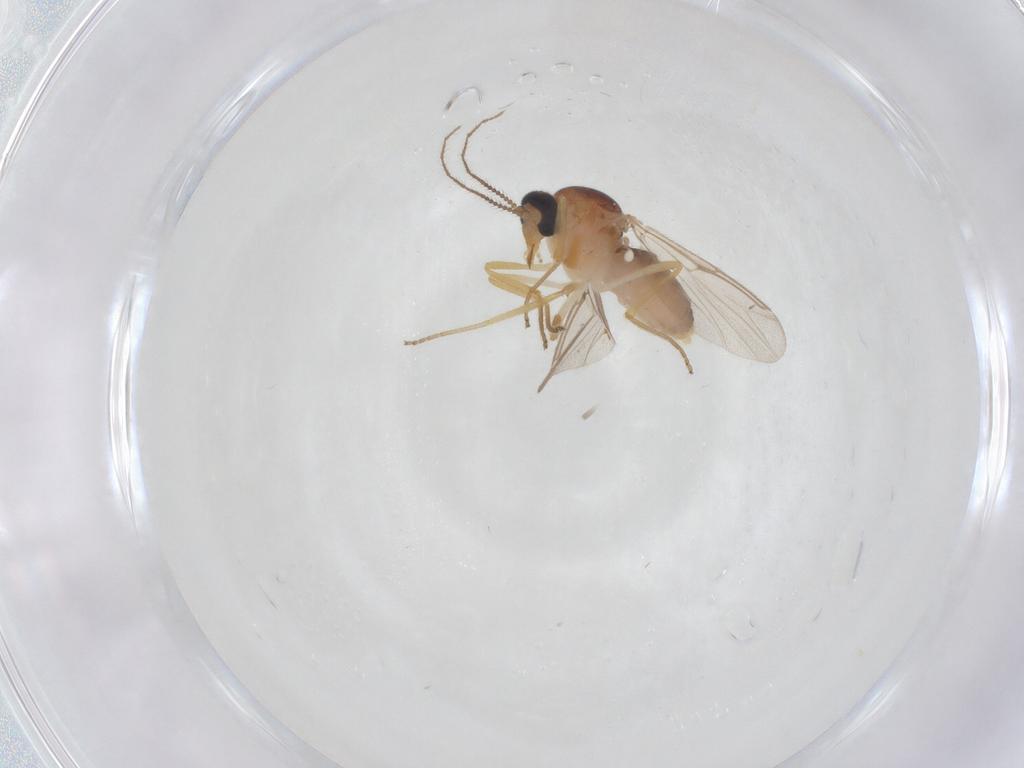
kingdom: Animalia
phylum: Arthropoda
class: Insecta
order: Diptera
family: Ceratopogonidae
